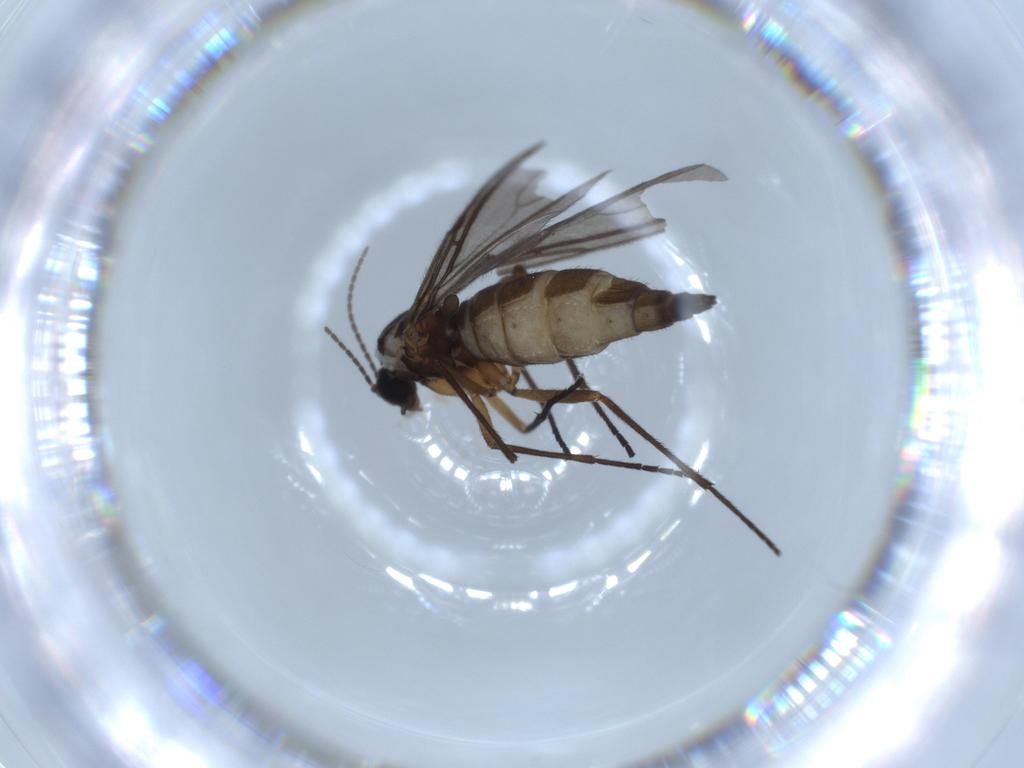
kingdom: Animalia
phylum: Arthropoda
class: Insecta
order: Diptera
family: Sciaridae
